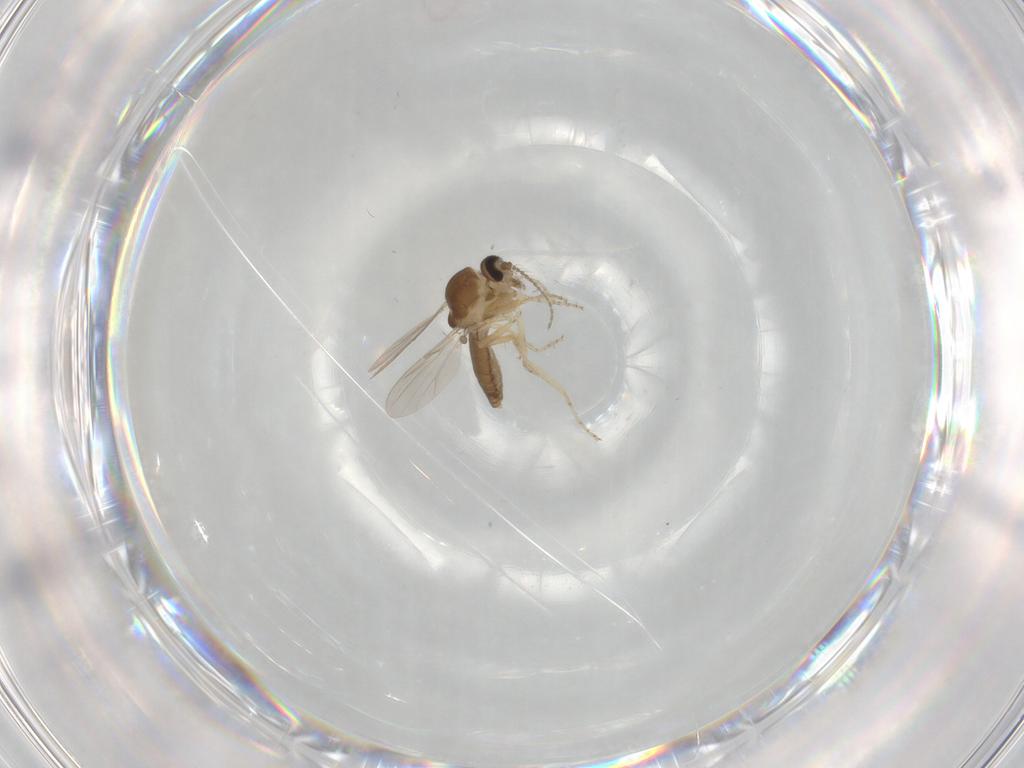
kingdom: Animalia
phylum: Arthropoda
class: Insecta
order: Diptera
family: Ceratopogonidae
